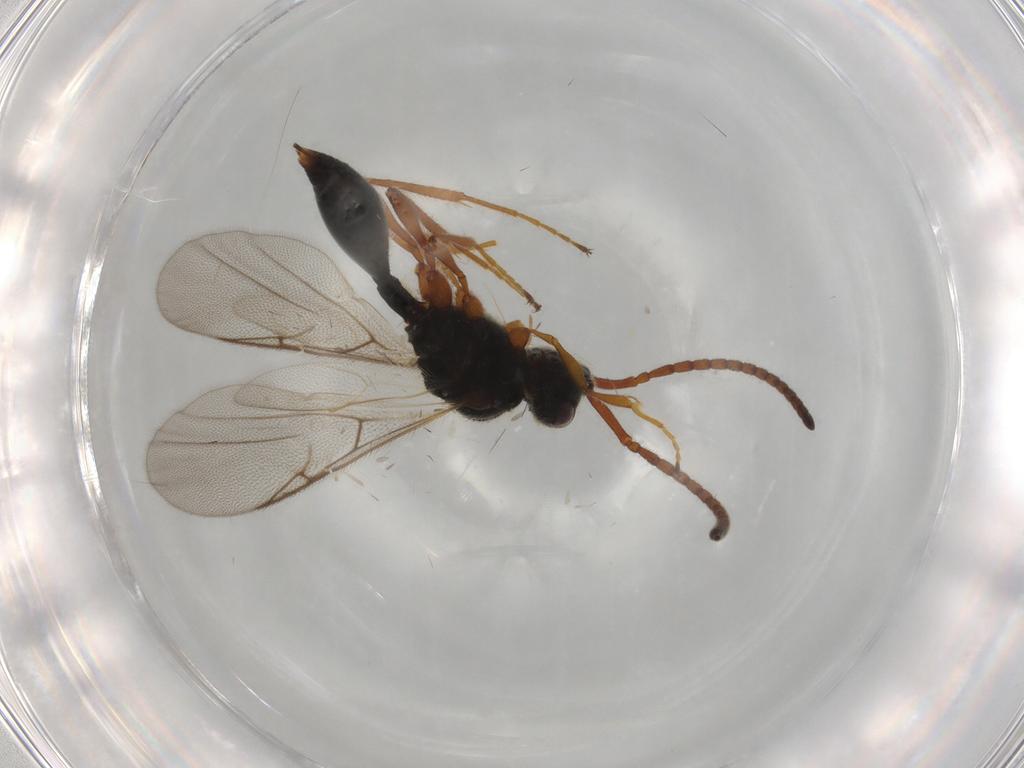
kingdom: Animalia
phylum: Arthropoda
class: Insecta
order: Hymenoptera
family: Diapriidae
